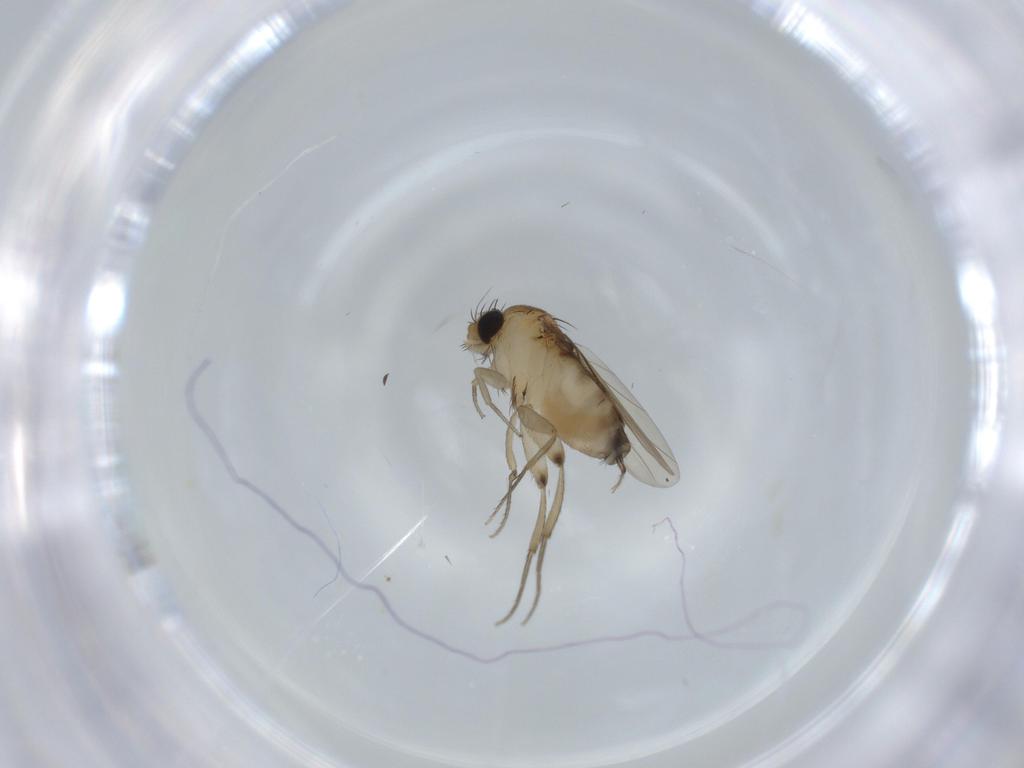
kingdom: Animalia
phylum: Arthropoda
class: Insecta
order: Diptera
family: Phoridae
